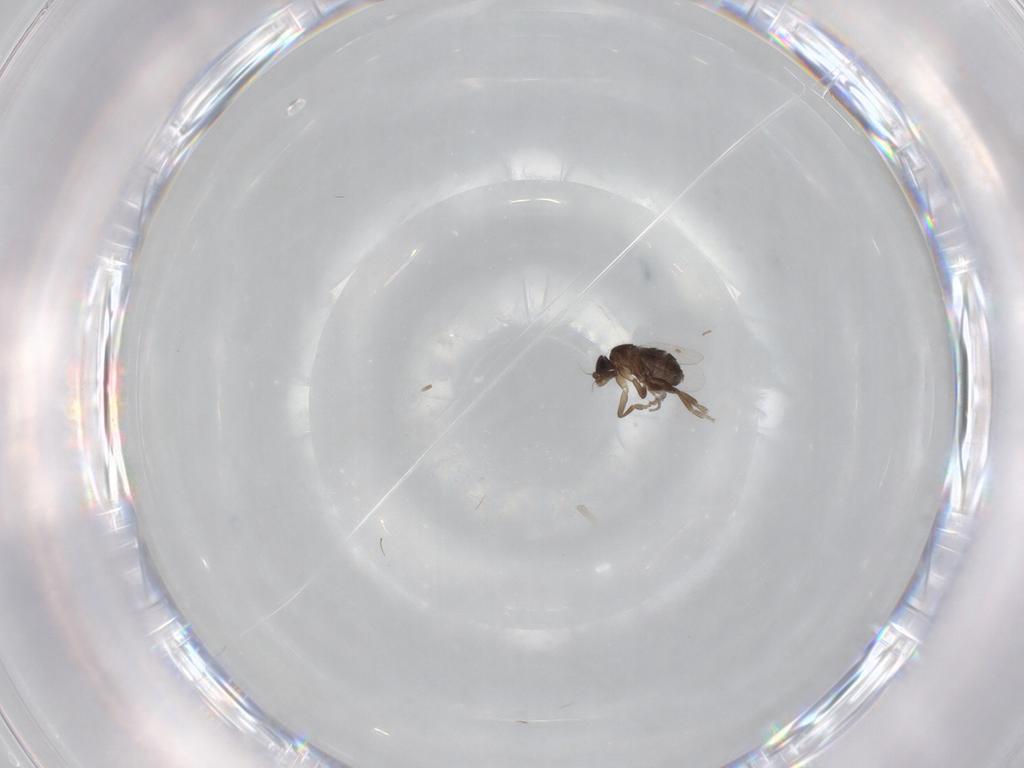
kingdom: Animalia
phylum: Arthropoda
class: Insecta
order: Diptera
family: Phoridae
